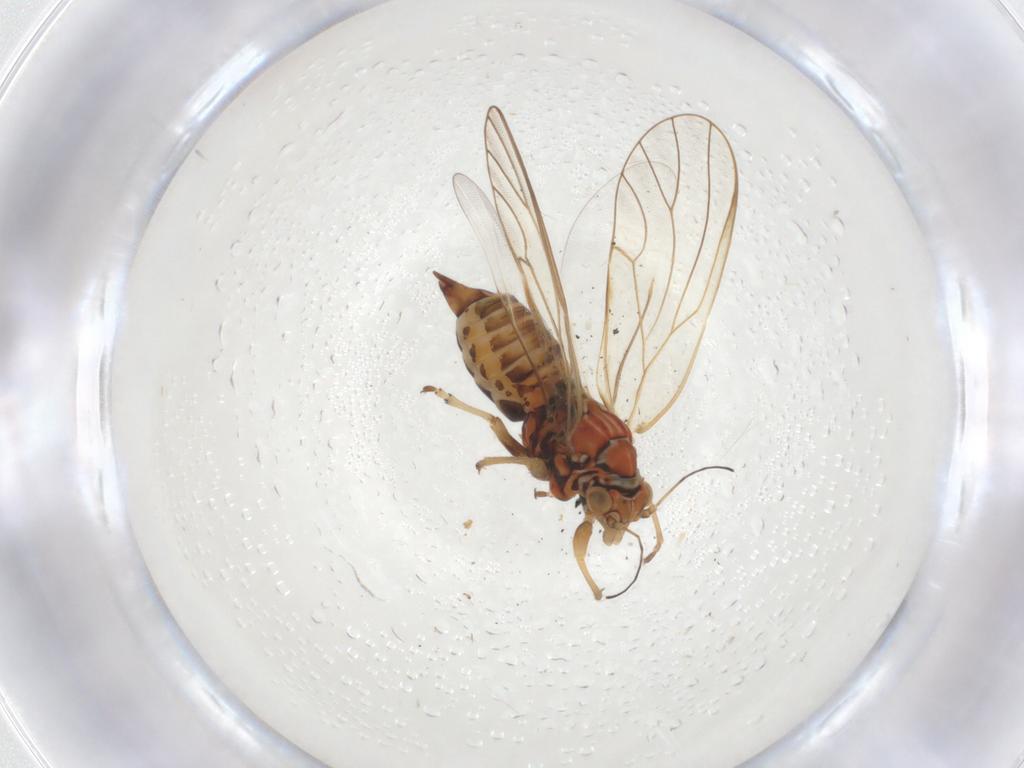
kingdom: Animalia
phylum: Arthropoda
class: Insecta
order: Hemiptera
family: Psyllidae
